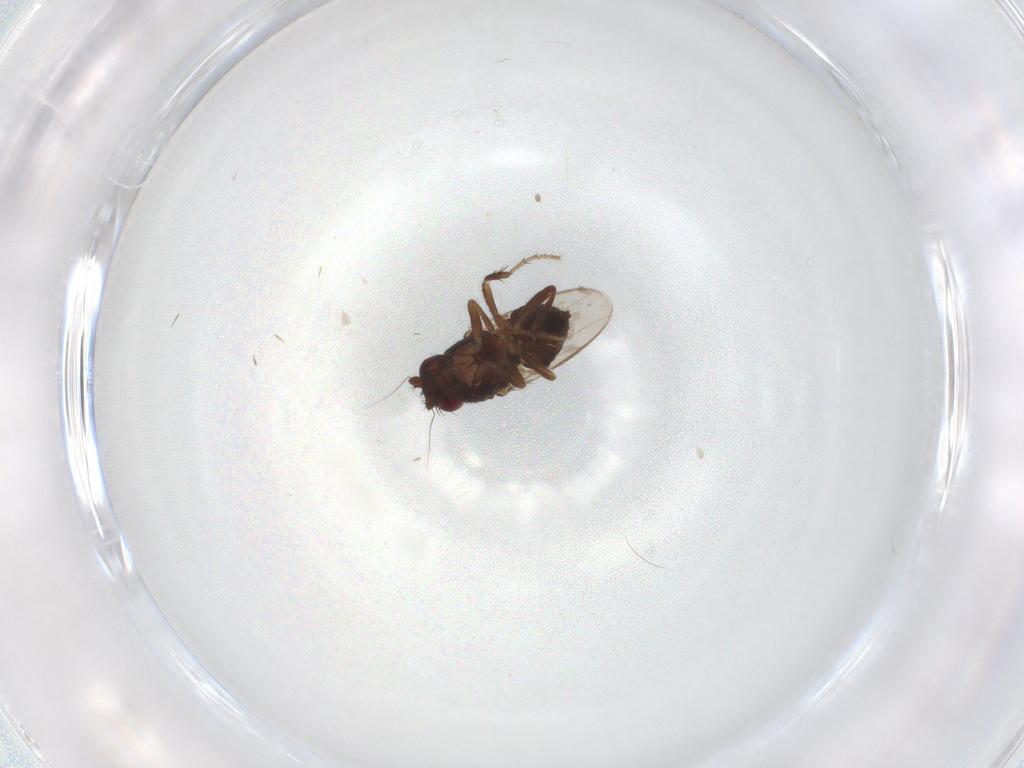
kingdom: Animalia
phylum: Arthropoda
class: Insecta
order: Diptera
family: Sphaeroceridae
